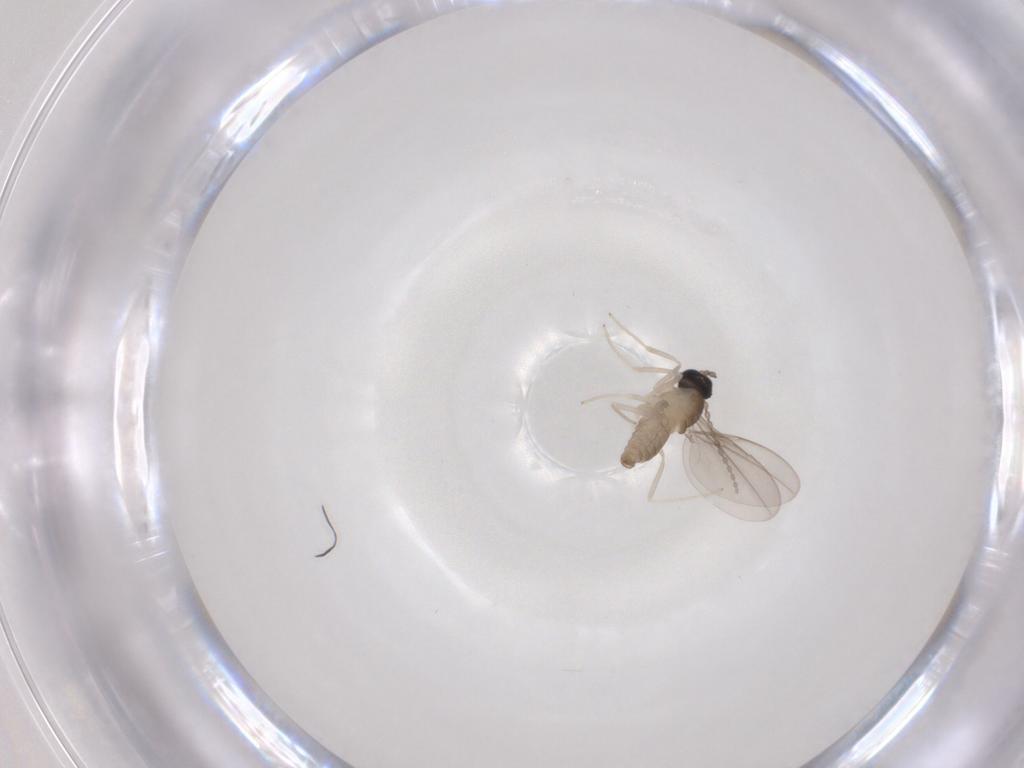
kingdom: Animalia
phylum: Arthropoda
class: Insecta
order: Diptera
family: Cecidomyiidae
